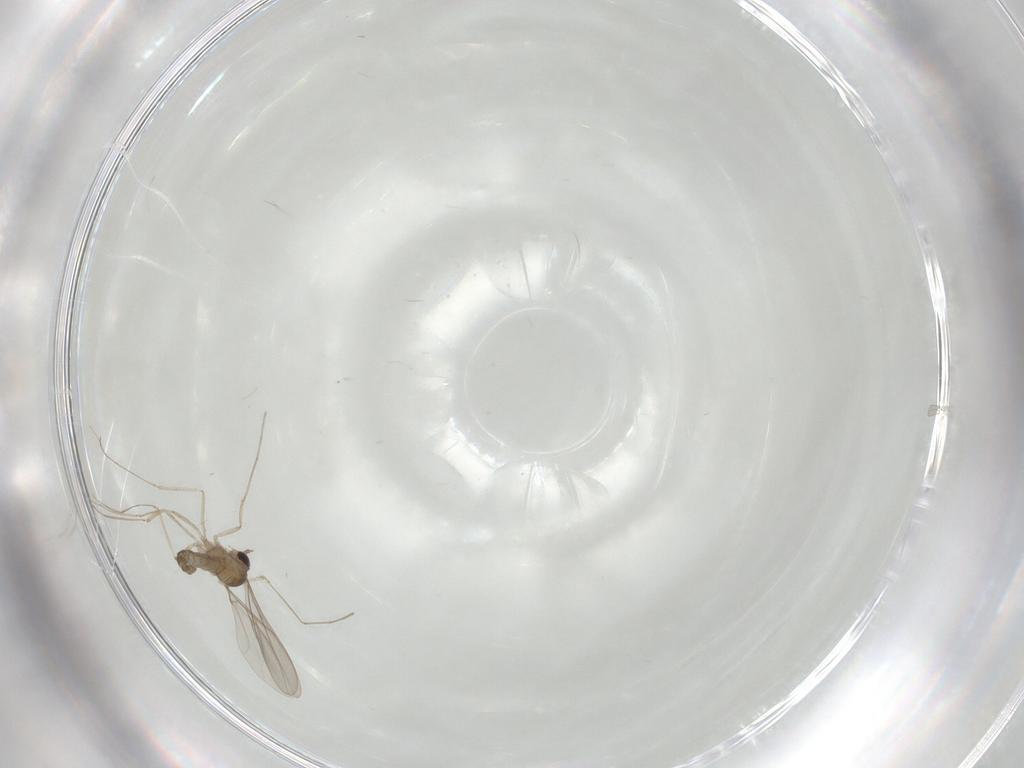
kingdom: Animalia
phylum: Arthropoda
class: Insecta
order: Diptera
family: Cecidomyiidae
